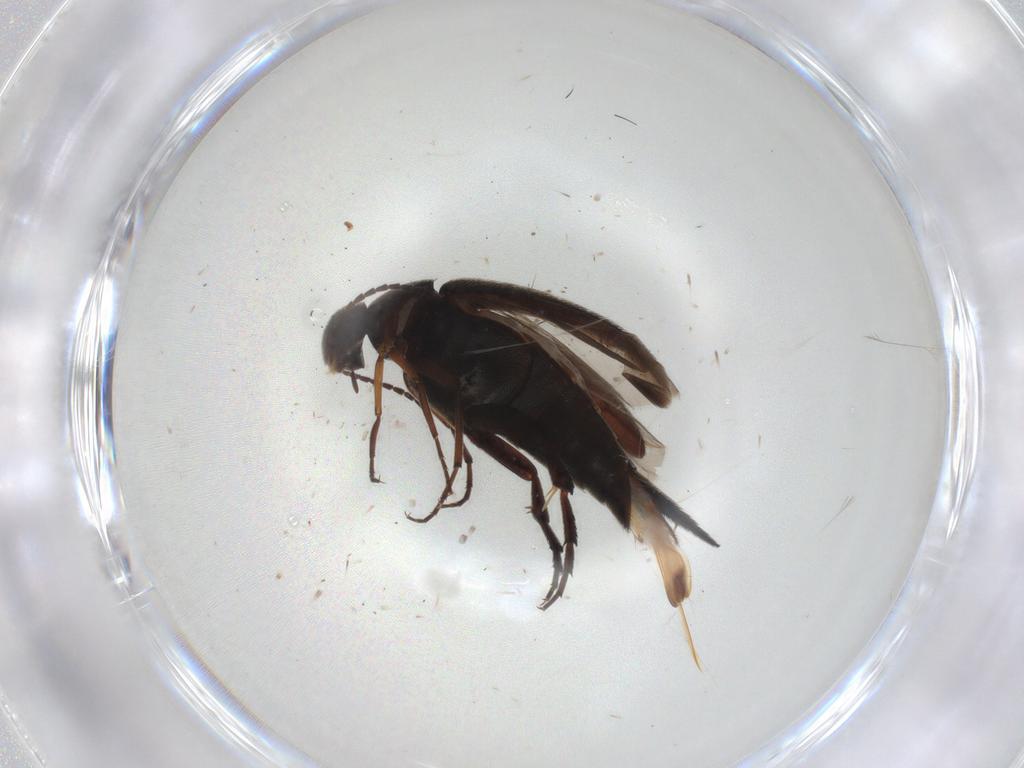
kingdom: Animalia
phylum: Arthropoda
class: Insecta
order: Coleoptera
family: Mordellidae
